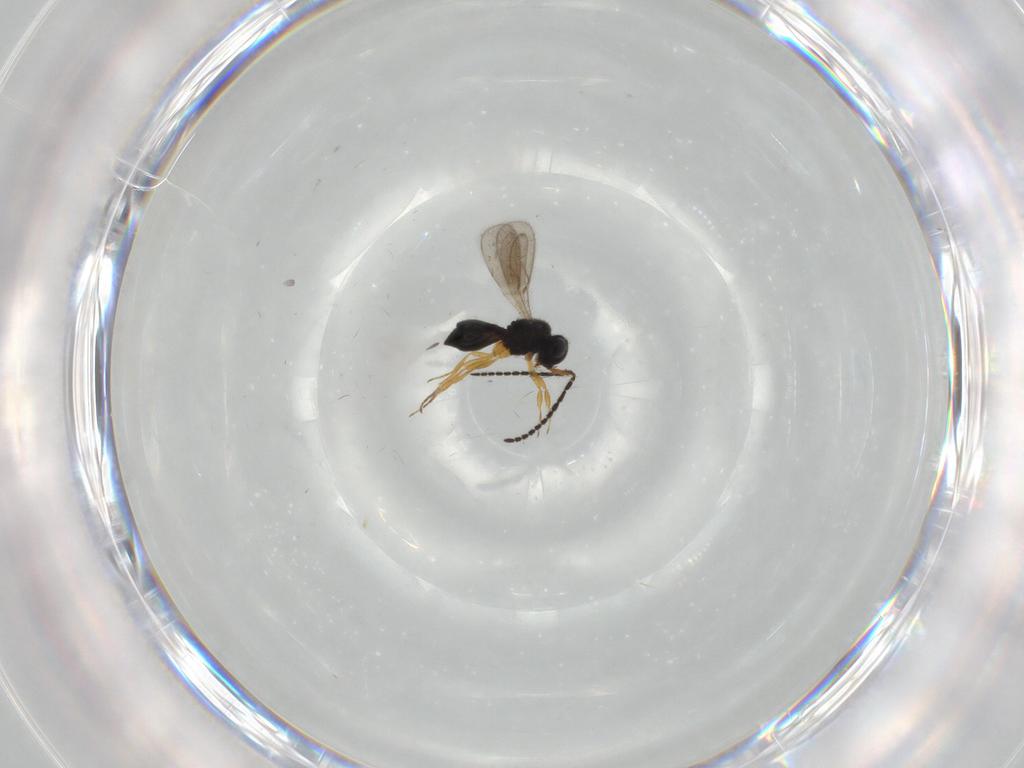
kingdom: Animalia
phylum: Arthropoda
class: Insecta
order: Hymenoptera
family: Scelionidae
